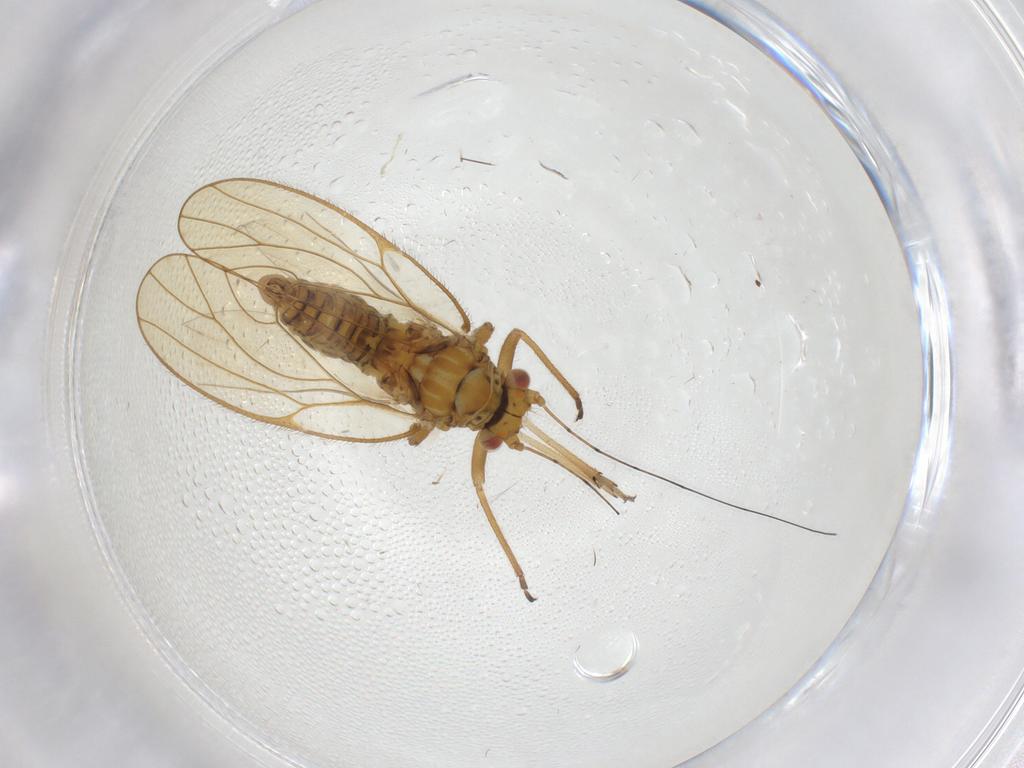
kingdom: Animalia
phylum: Arthropoda
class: Insecta
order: Hemiptera
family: Psyllidae
